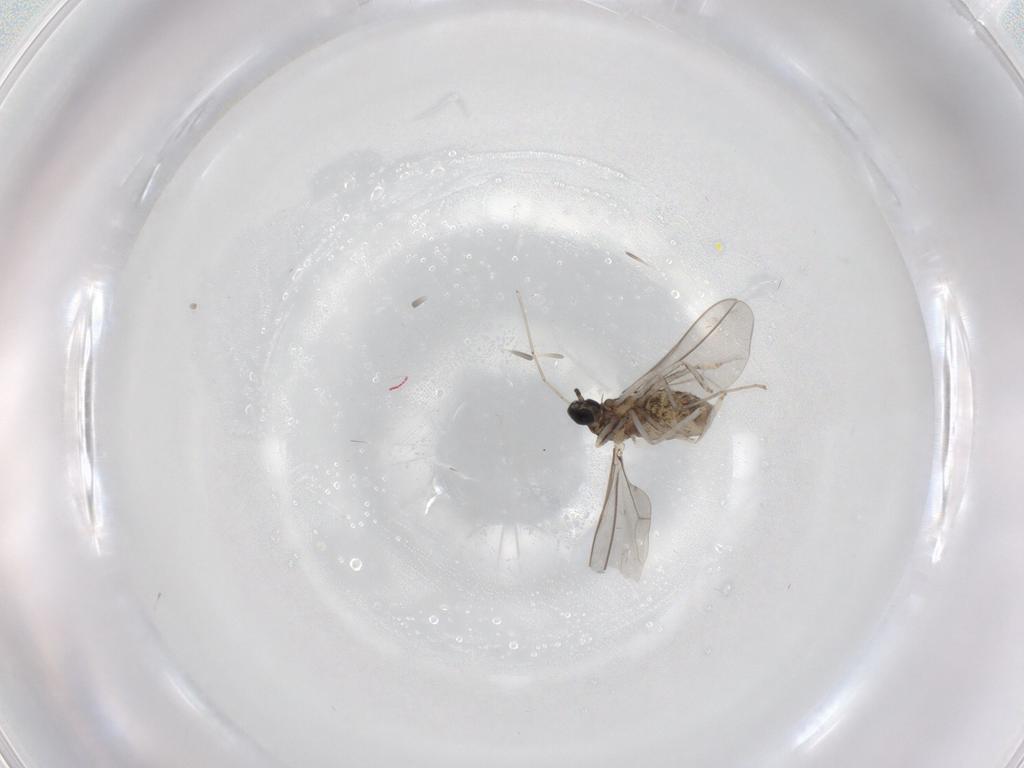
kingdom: Animalia
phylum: Arthropoda
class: Insecta
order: Diptera
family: Cecidomyiidae
